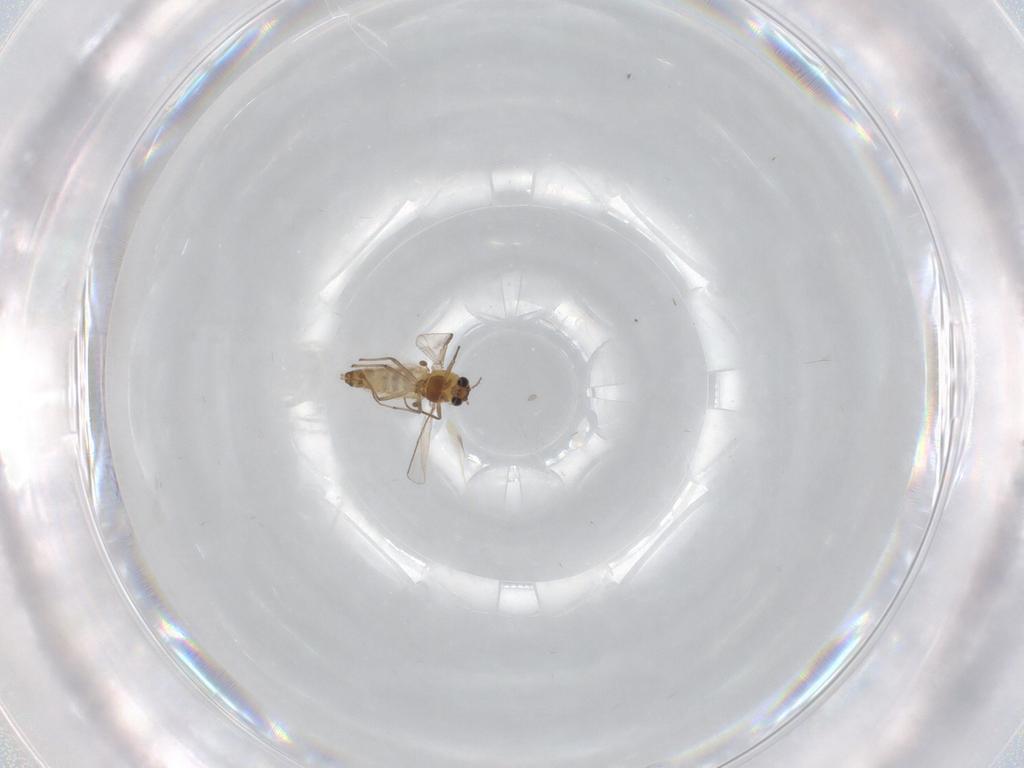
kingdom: Animalia
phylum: Arthropoda
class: Insecta
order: Diptera
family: Chironomidae
